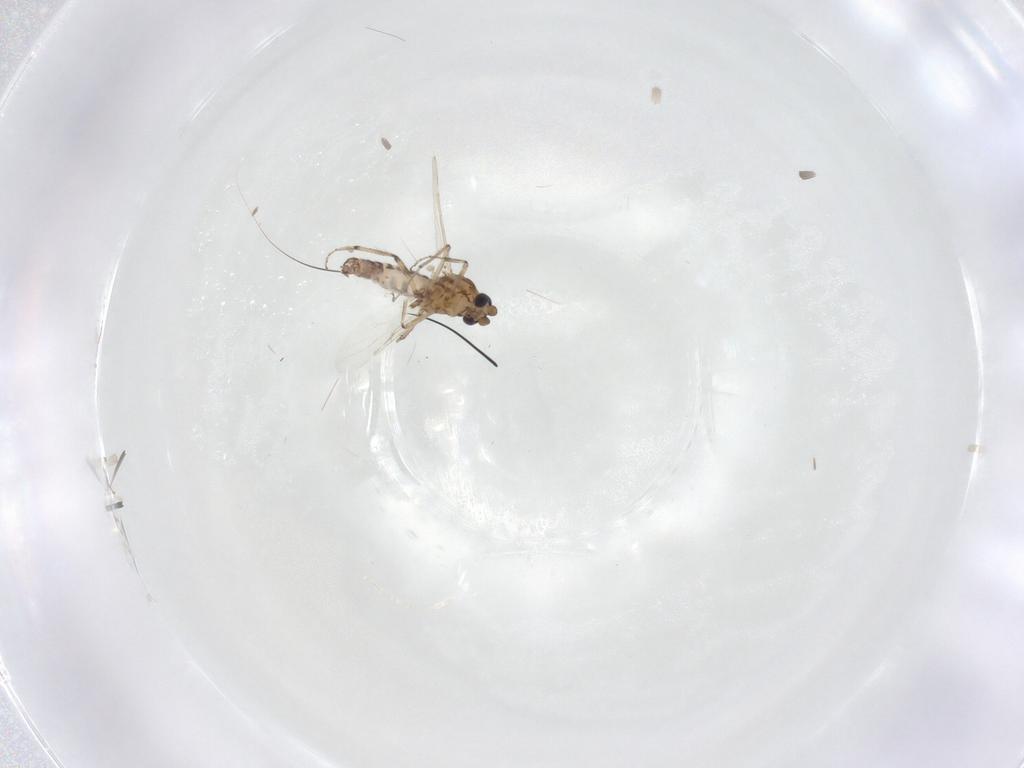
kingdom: Animalia
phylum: Arthropoda
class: Insecta
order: Diptera
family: Ceratopogonidae
